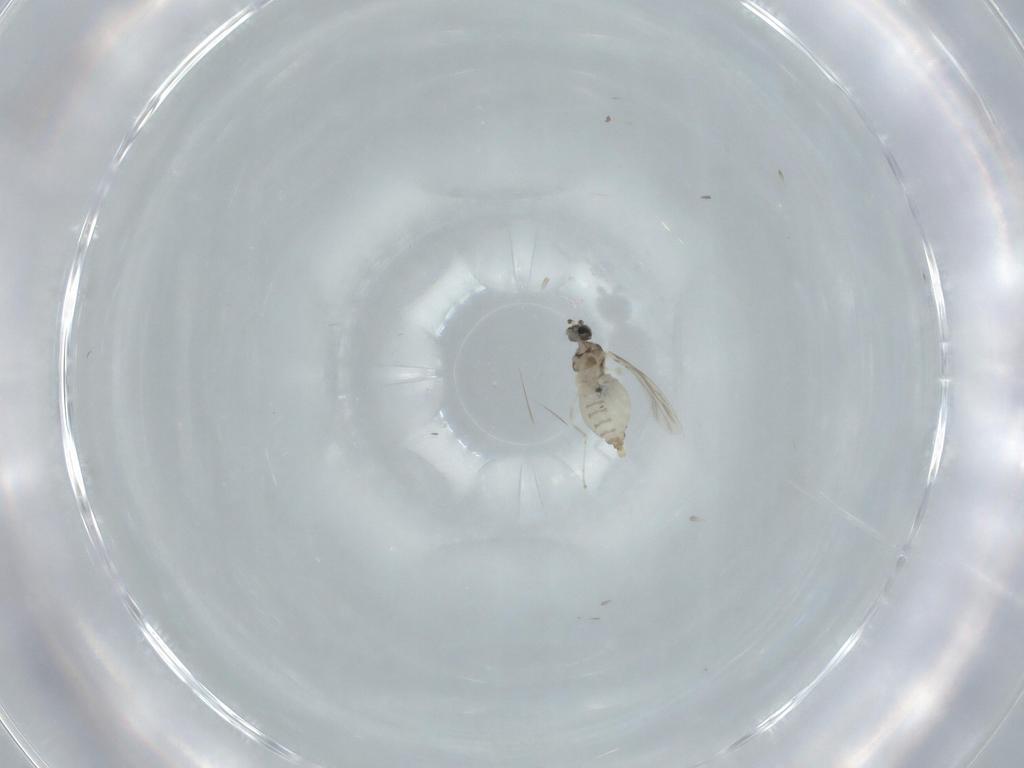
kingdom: Animalia
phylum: Arthropoda
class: Insecta
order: Diptera
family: Cecidomyiidae
